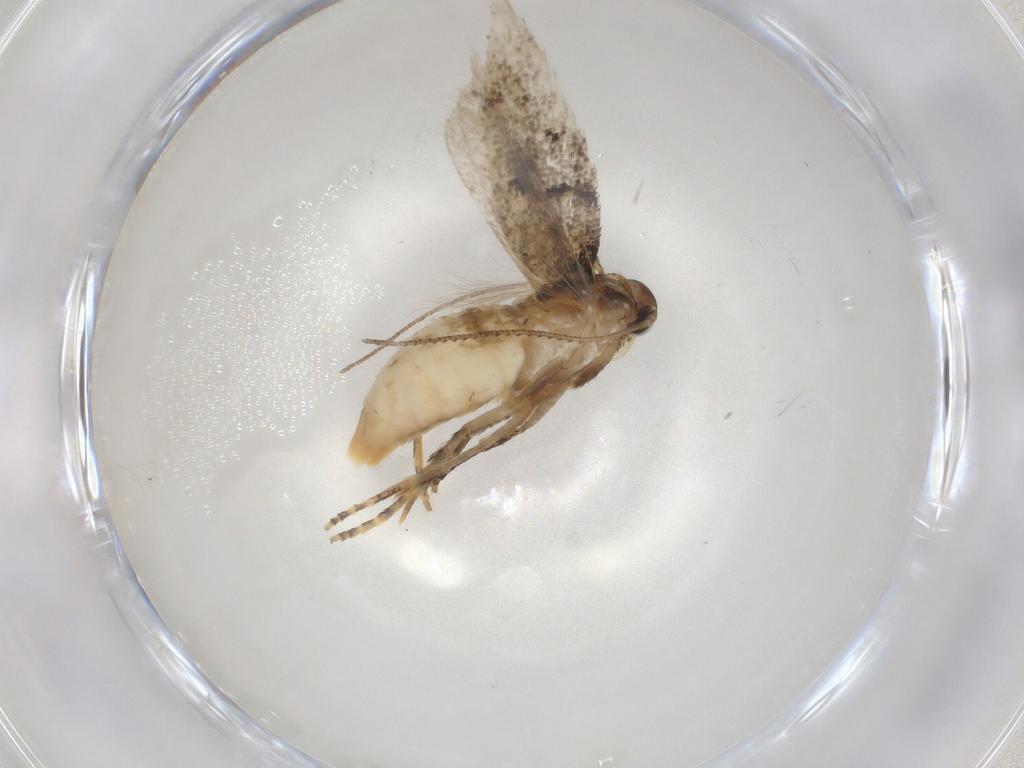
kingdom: Animalia
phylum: Arthropoda
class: Insecta
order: Lepidoptera
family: Gelechiidae
